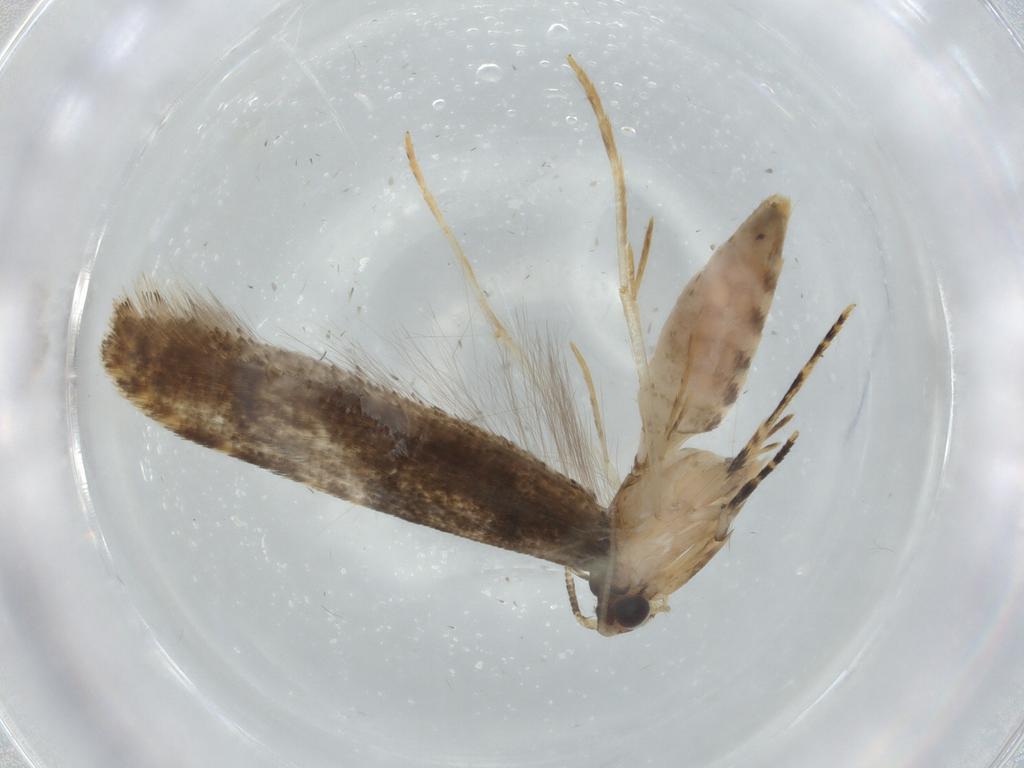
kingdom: Animalia
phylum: Arthropoda
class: Insecta
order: Lepidoptera
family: Tineidae
